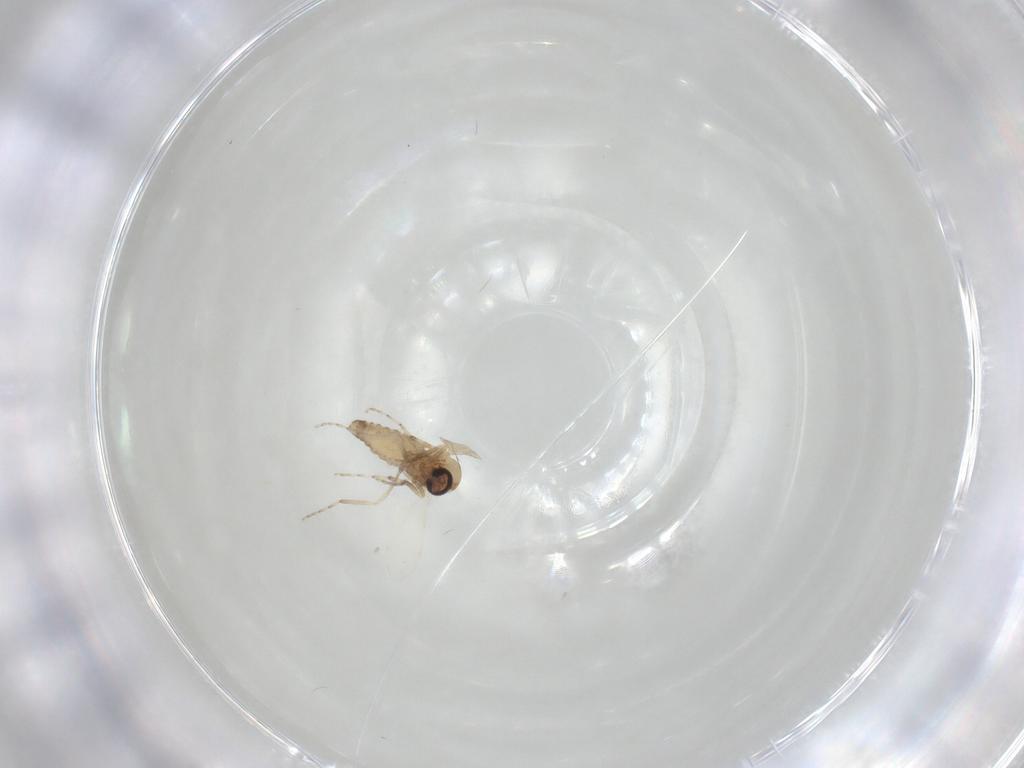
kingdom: Animalia
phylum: Arthropoda
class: Insecta
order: Diptera
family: Psychodidae
